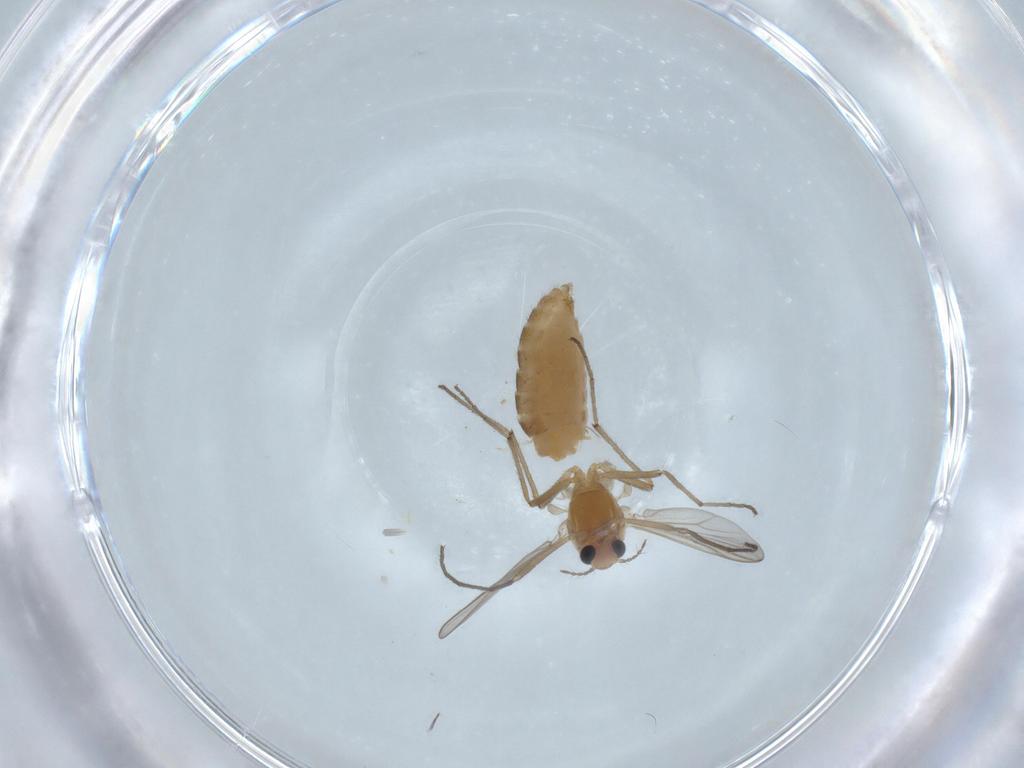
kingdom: Animalia
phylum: Arthropoda
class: Insecta
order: Diptera
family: Chironomidae
